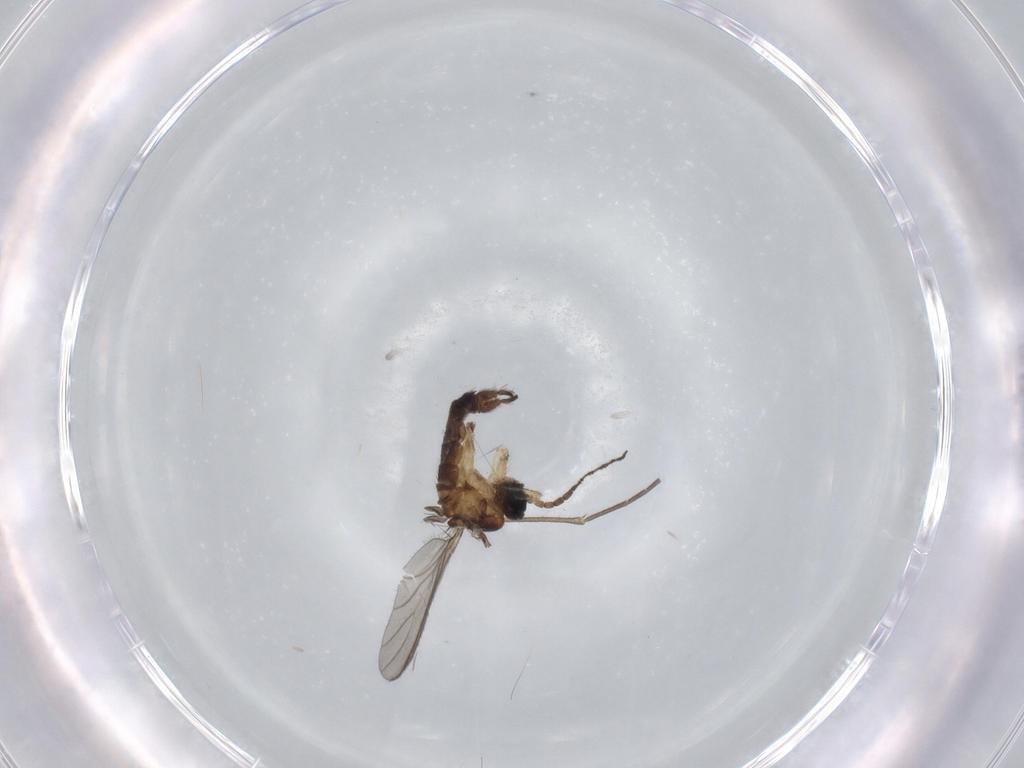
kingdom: Animalia
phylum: Arthropoda
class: Insecta
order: Diptera
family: Sciaridae
